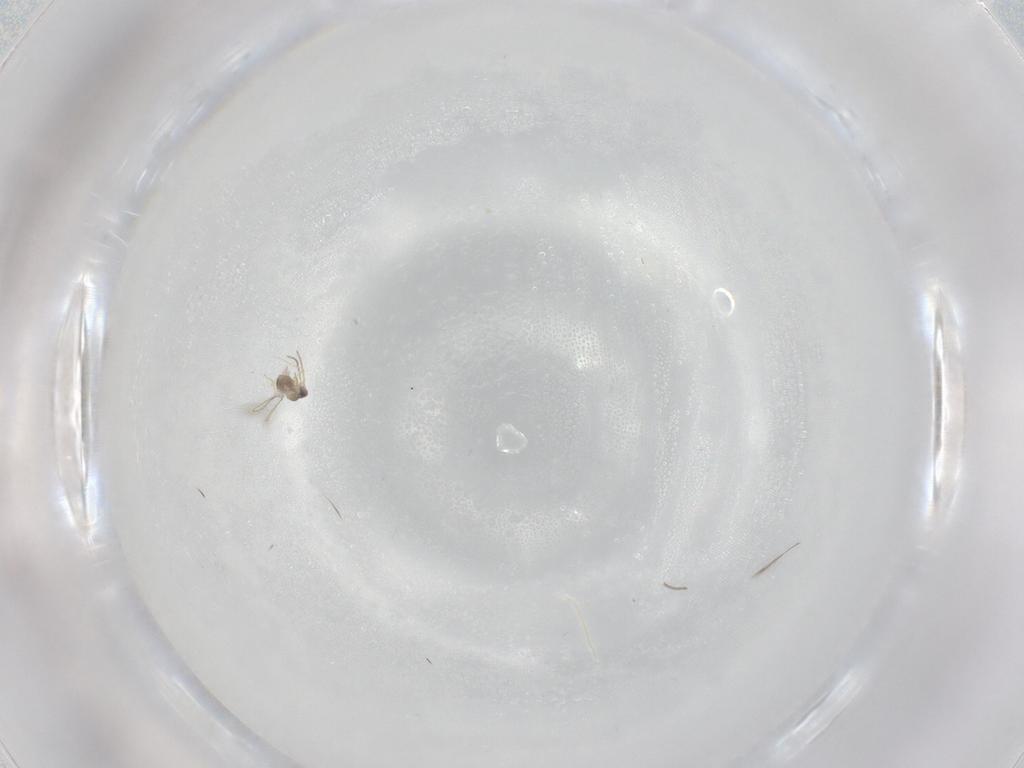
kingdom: Animalia
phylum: Arthropoda
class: Insecta
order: Diptera
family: Phoridae
